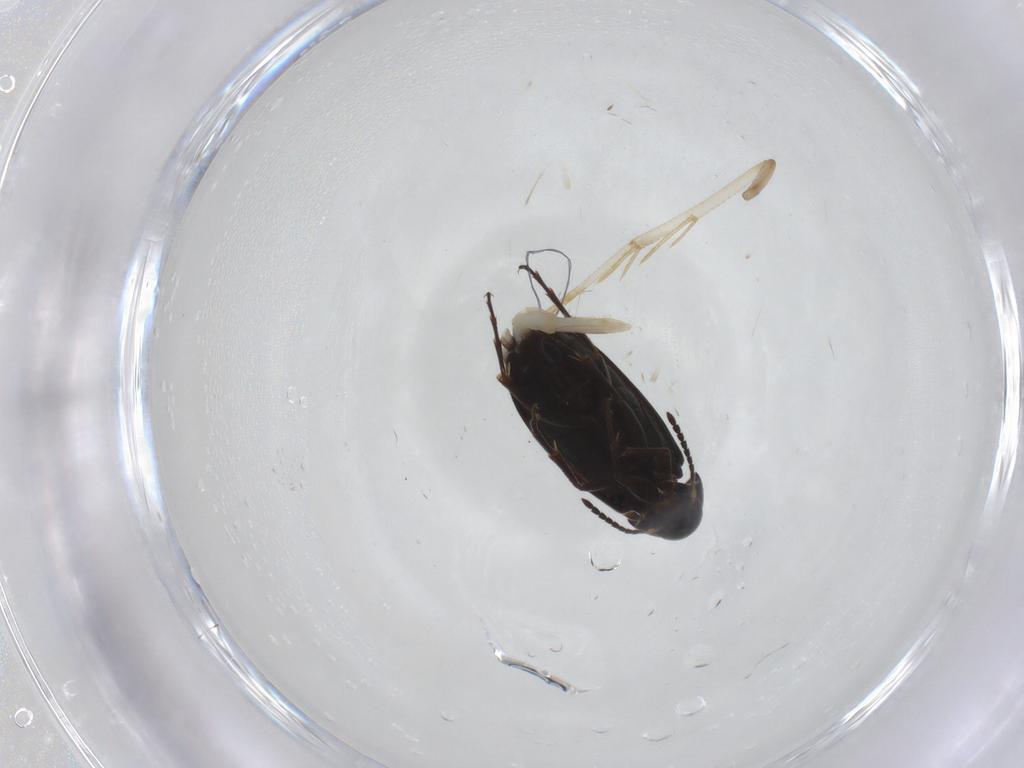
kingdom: Animalia
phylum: Arthropoda
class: Insecta
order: Coleoptera
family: Scraptiidae
